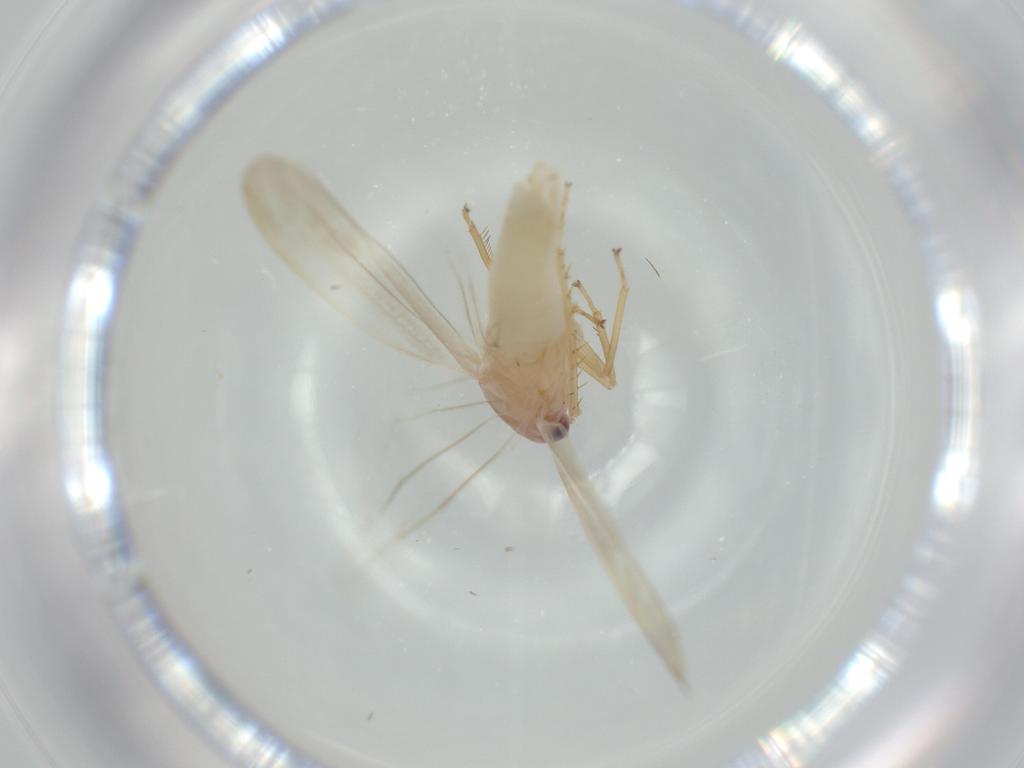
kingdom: Animalia
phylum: Arthropoda
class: Insecta
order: Hemiptera
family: Cicadellidae
